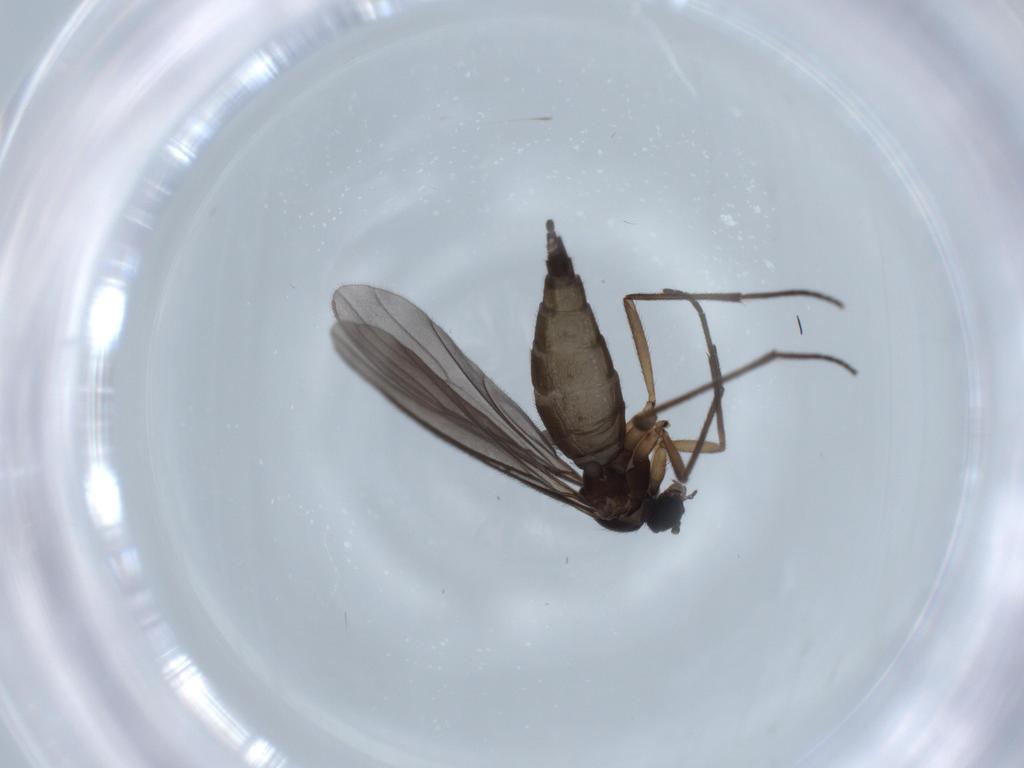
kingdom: Animalia
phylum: Arthropoda
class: Insecta
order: Diptera
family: Sciaridae
